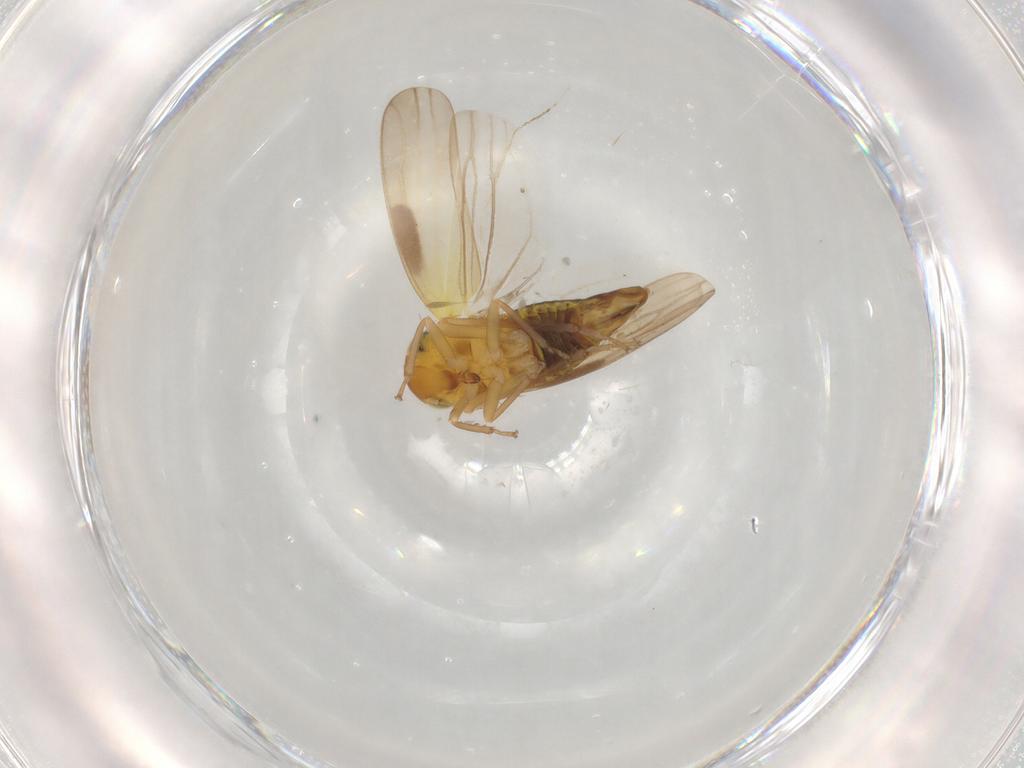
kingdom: Animalia
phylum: Arthropoda
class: Insecta
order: Hemiptera
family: Cicadellidae
